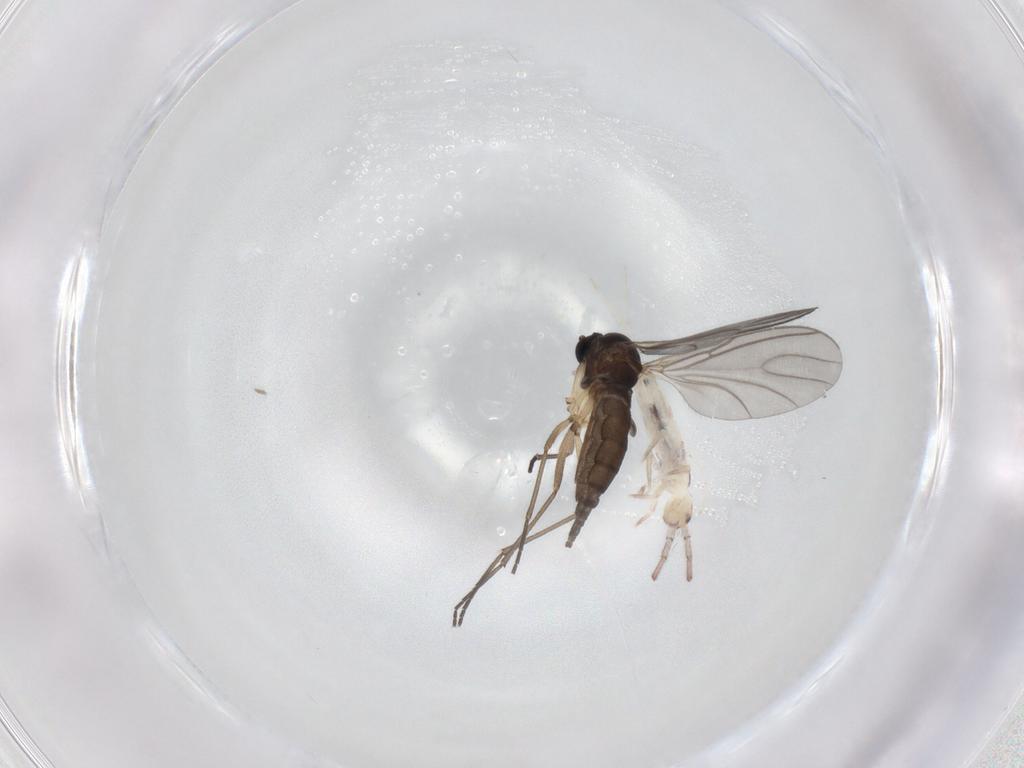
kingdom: Animalia
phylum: Arthropoda
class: Insecta
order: Diptera
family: Sciaridae
